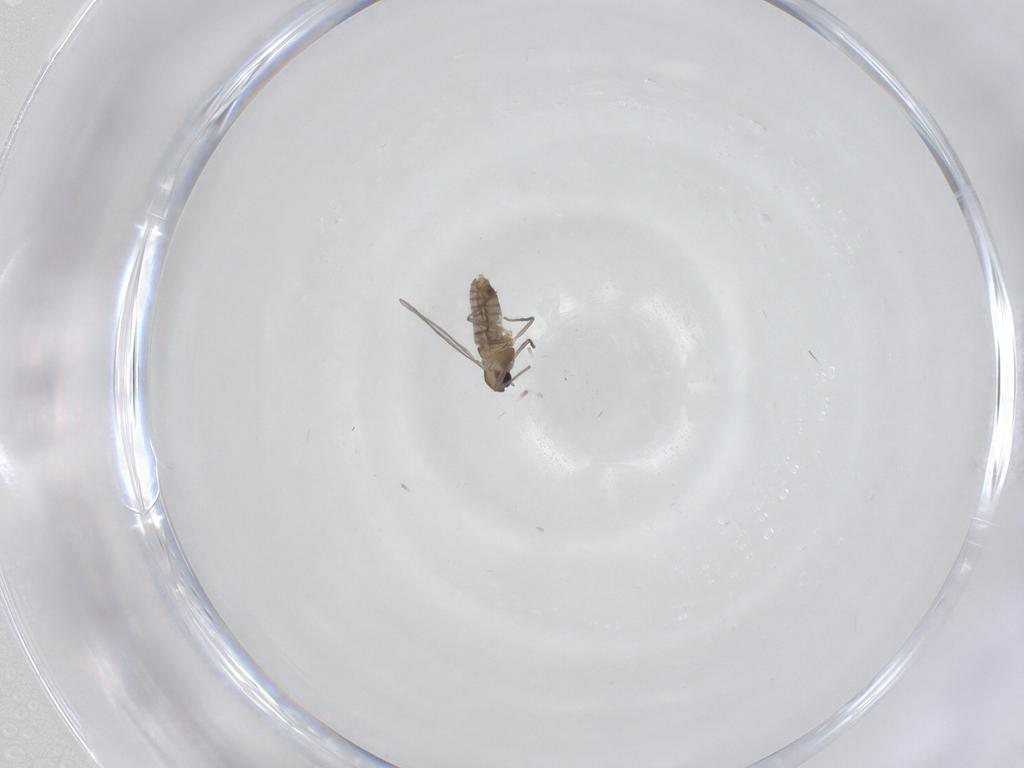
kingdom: Animalia
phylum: Arthropoda
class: Insecta
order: Diptera
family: Chironomidae
